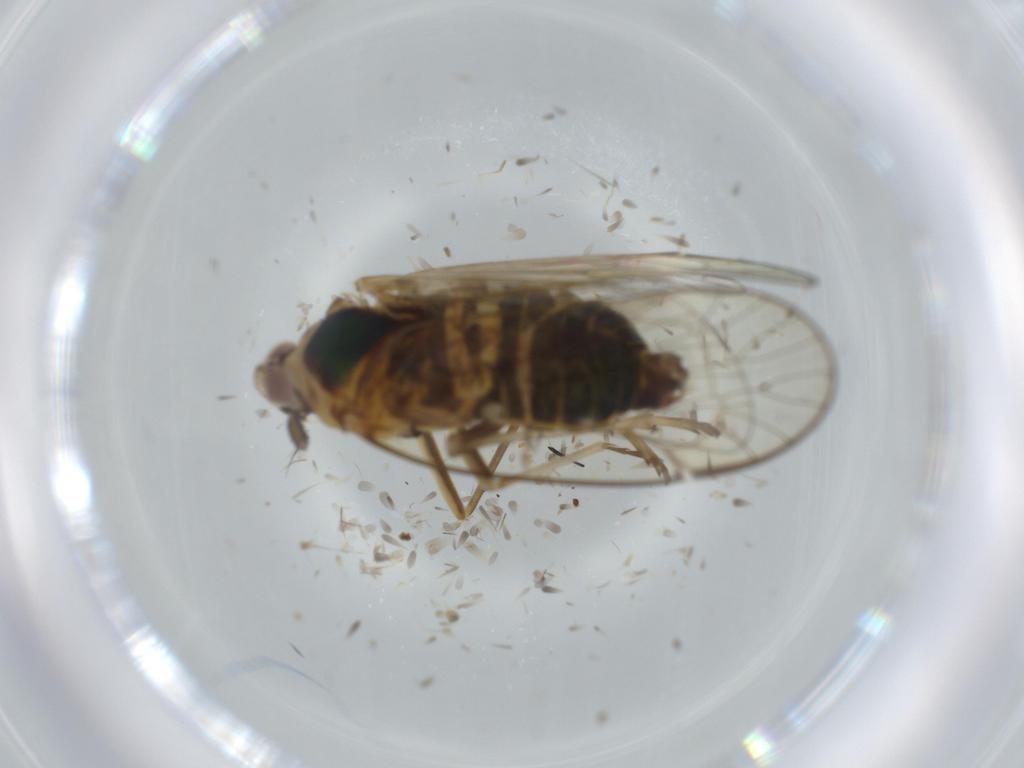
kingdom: Animalia
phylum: Arthropoda
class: Insecta
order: Hemiptera
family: Kinnaridae
